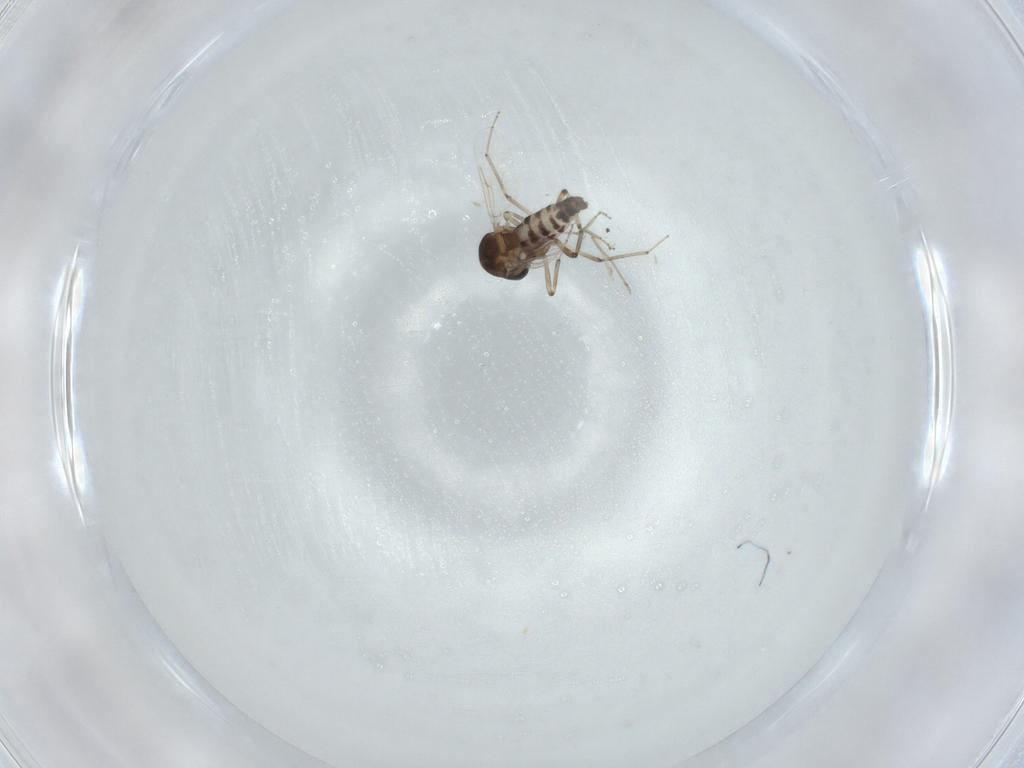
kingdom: Animalia
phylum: Arthropoda
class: Insecta
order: Diptera
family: Ceratopogonidae
